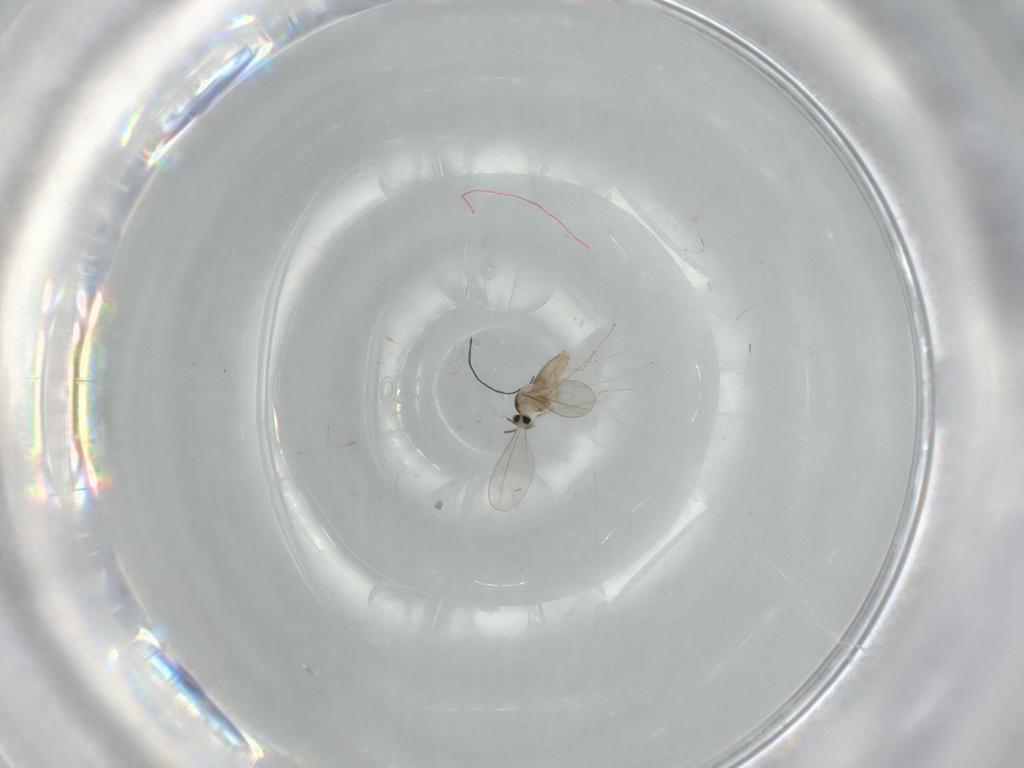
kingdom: Animalia
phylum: Arthropoda
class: Insecta
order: Diptera
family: Cecidomyiidae
